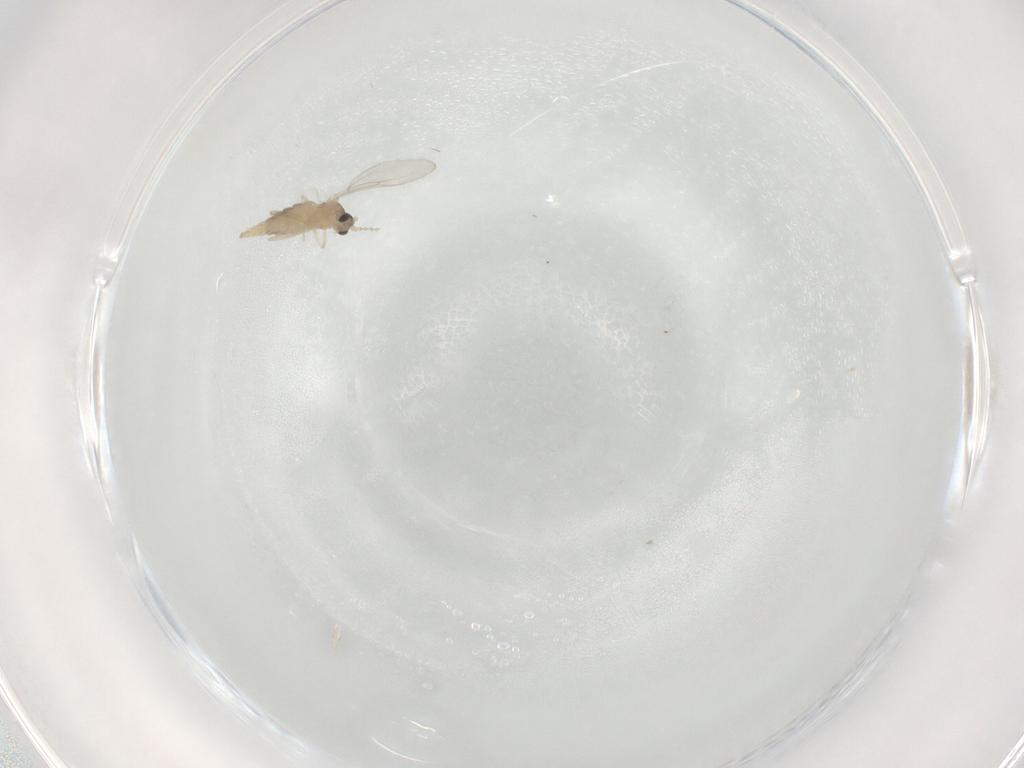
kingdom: Animalia
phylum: Arthropoda
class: Insecta
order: Diptera
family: Cecidomyiidae
